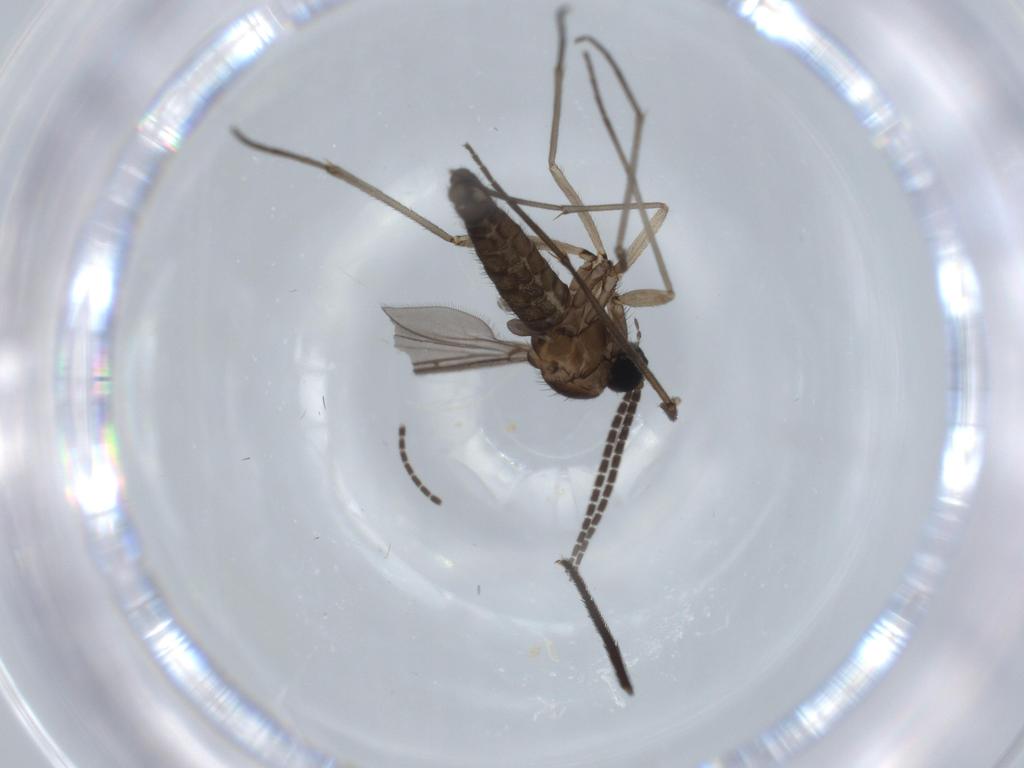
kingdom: Animalia
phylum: Arthropoda
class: Insecta
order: Diptera
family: Sciaridae
